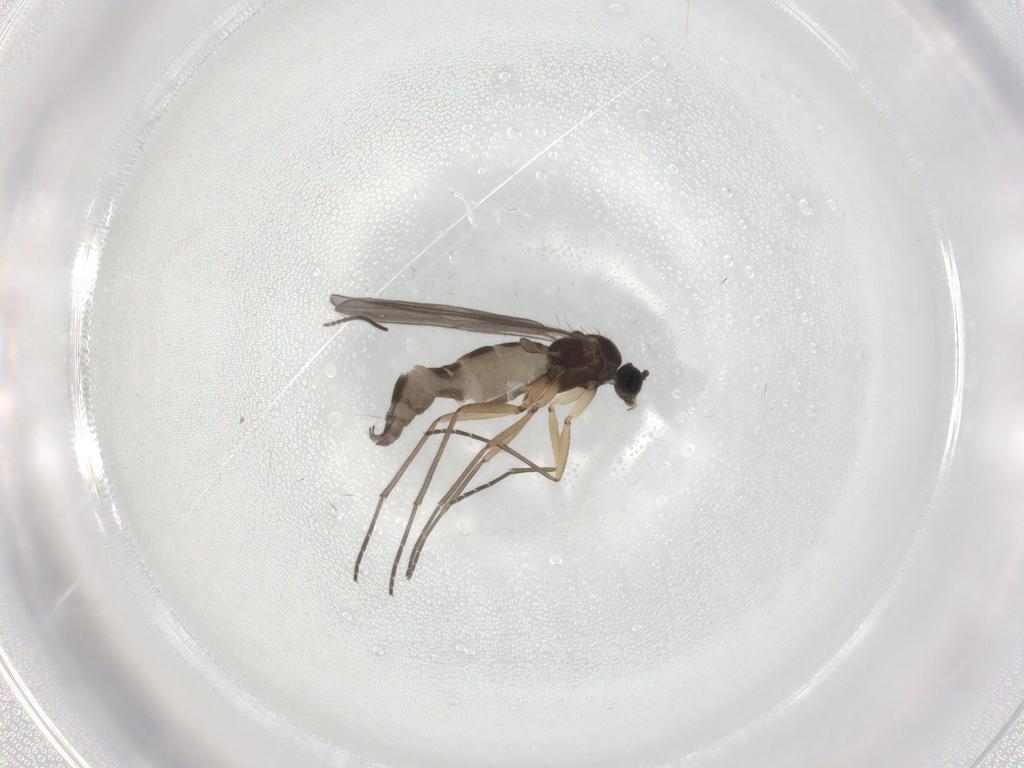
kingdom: Animalia
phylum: Arthropoda
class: Insecta
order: Diptera
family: Sciaridae
